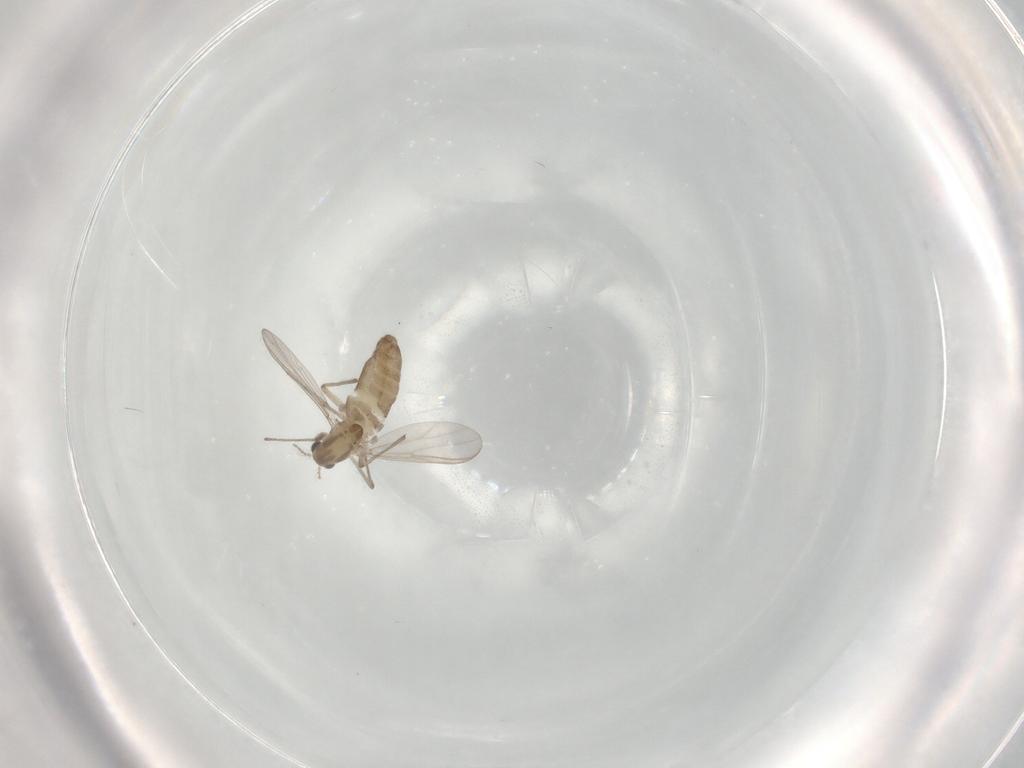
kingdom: Animalia
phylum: Arthropoda
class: Insecta
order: Diptera
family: Chironomidae
